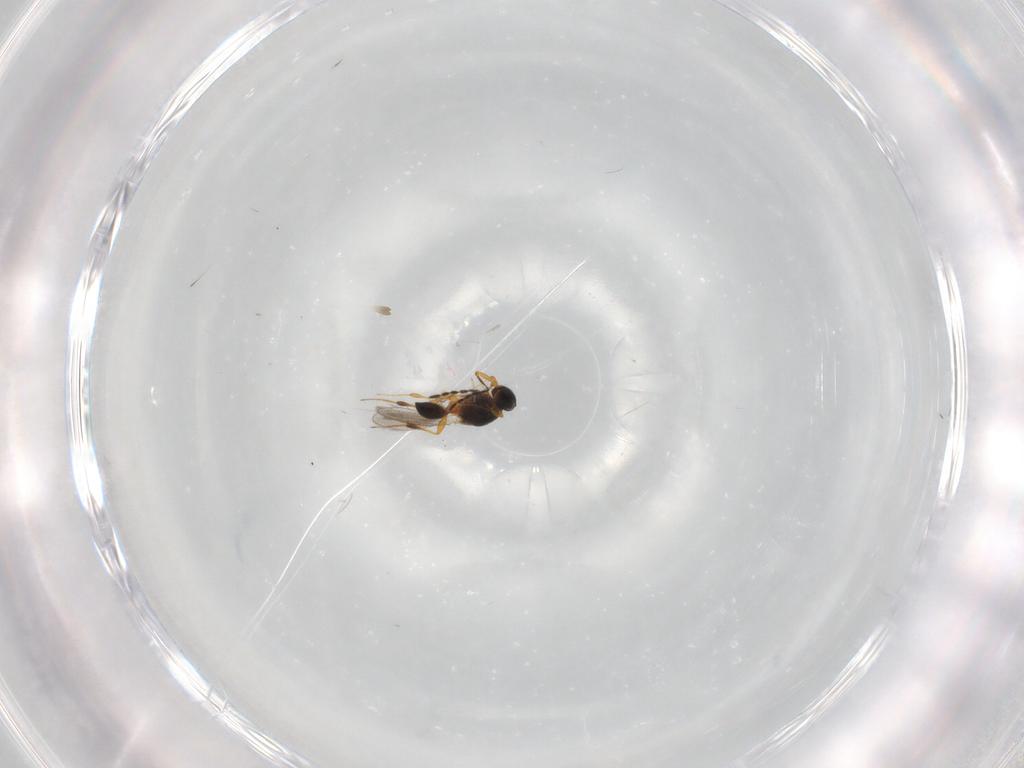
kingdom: Animalia
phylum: Arthropoda
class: Insecta
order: Hymenoptera
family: Platygastridae
